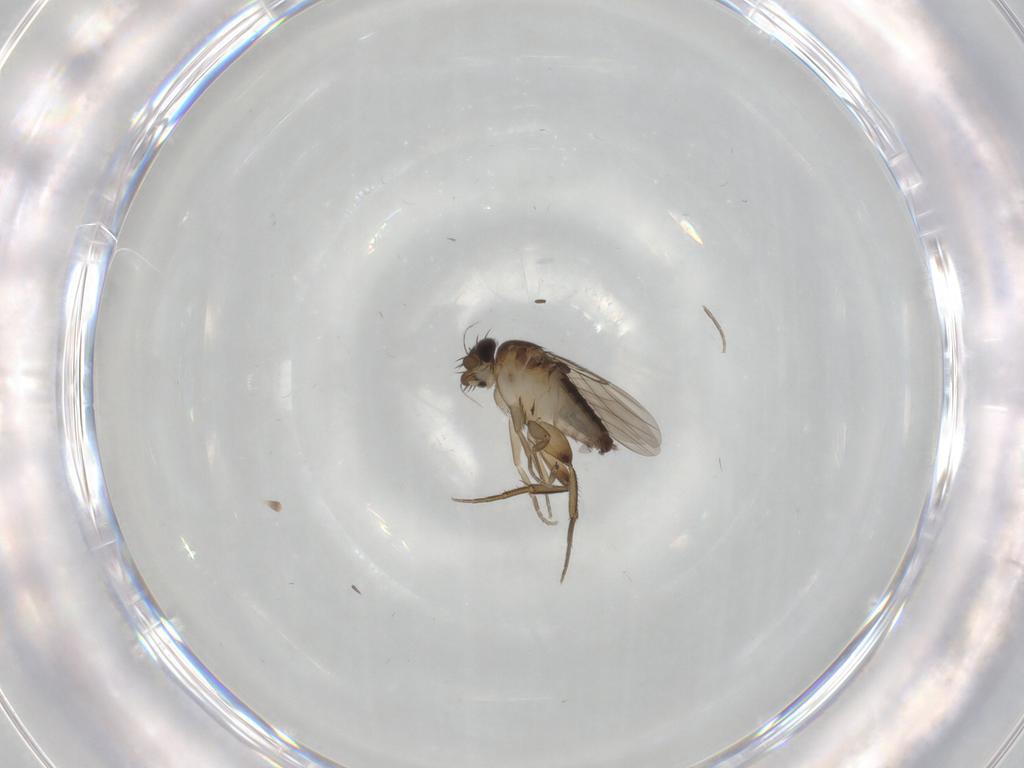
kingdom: Animalia
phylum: Arthropoda
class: Insecta
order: Diptera
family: Phoridae
